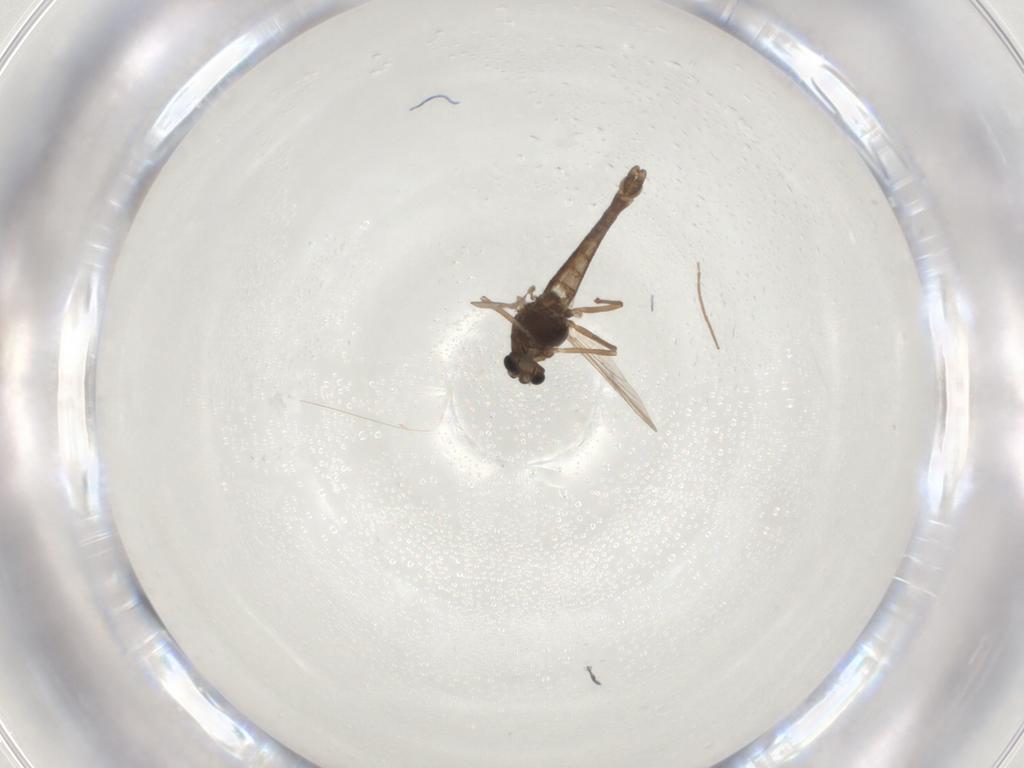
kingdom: Animalia
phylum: Arthropoda
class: Insecta
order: Diptera
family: Chironomidae
